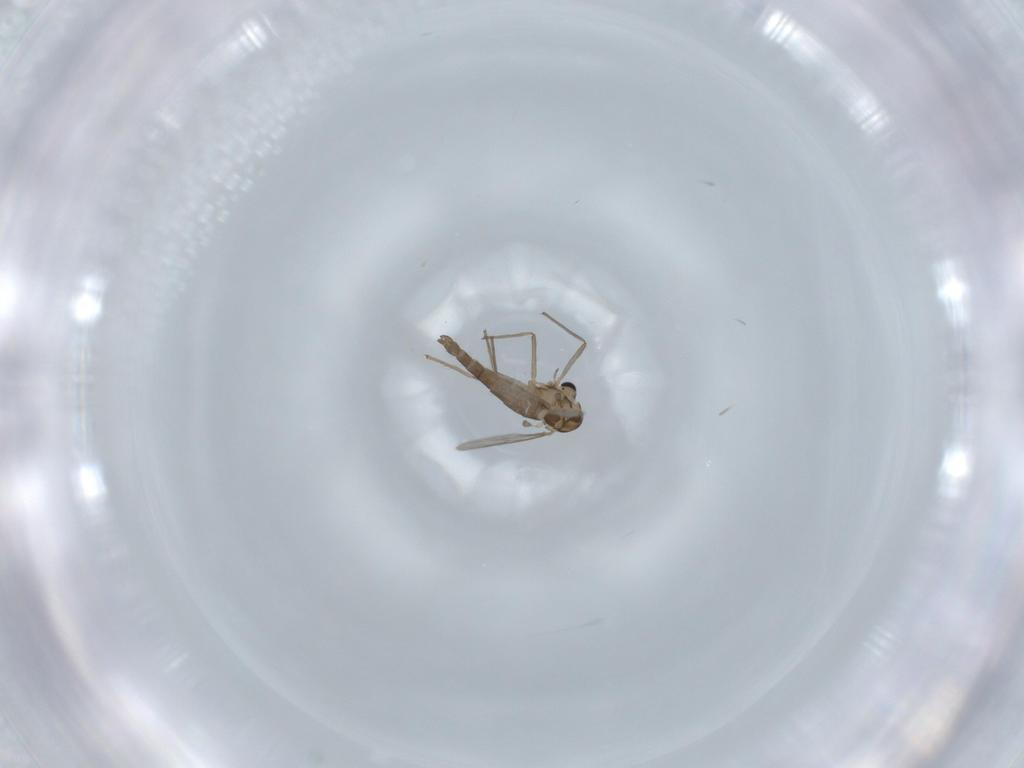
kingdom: Animalia
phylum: Arthropoda
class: Insecta
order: Diptera
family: Chironomidae
